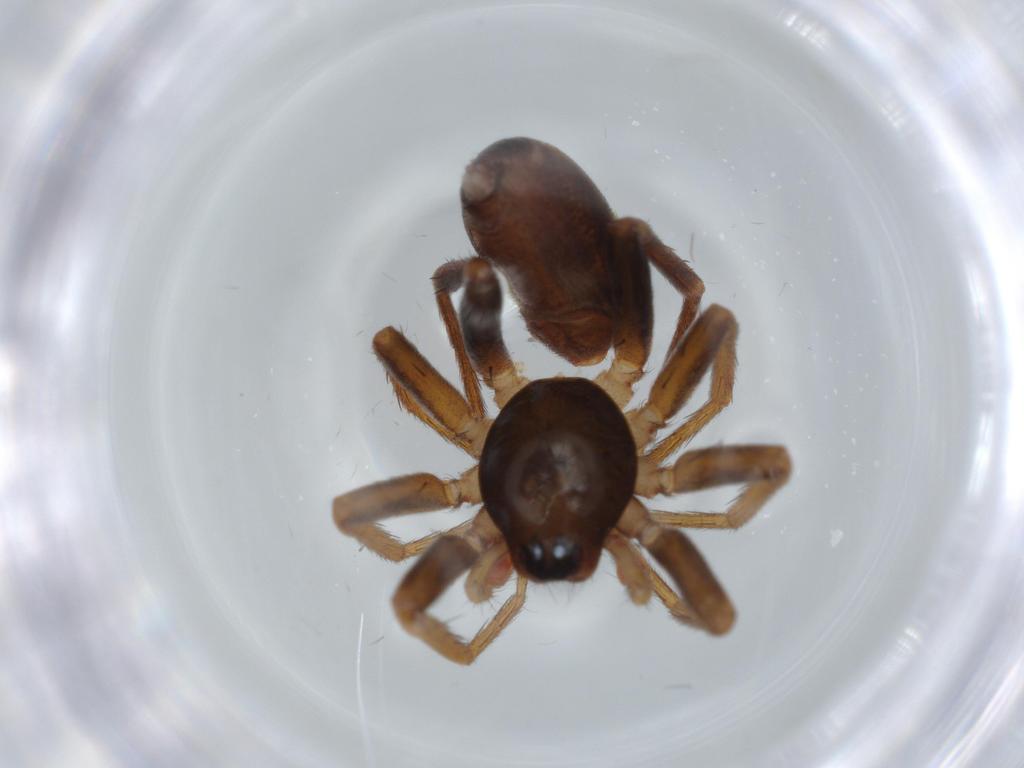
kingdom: Animalia
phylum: Arthropoda
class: Arachnida
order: Araneae
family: Corinnidae
